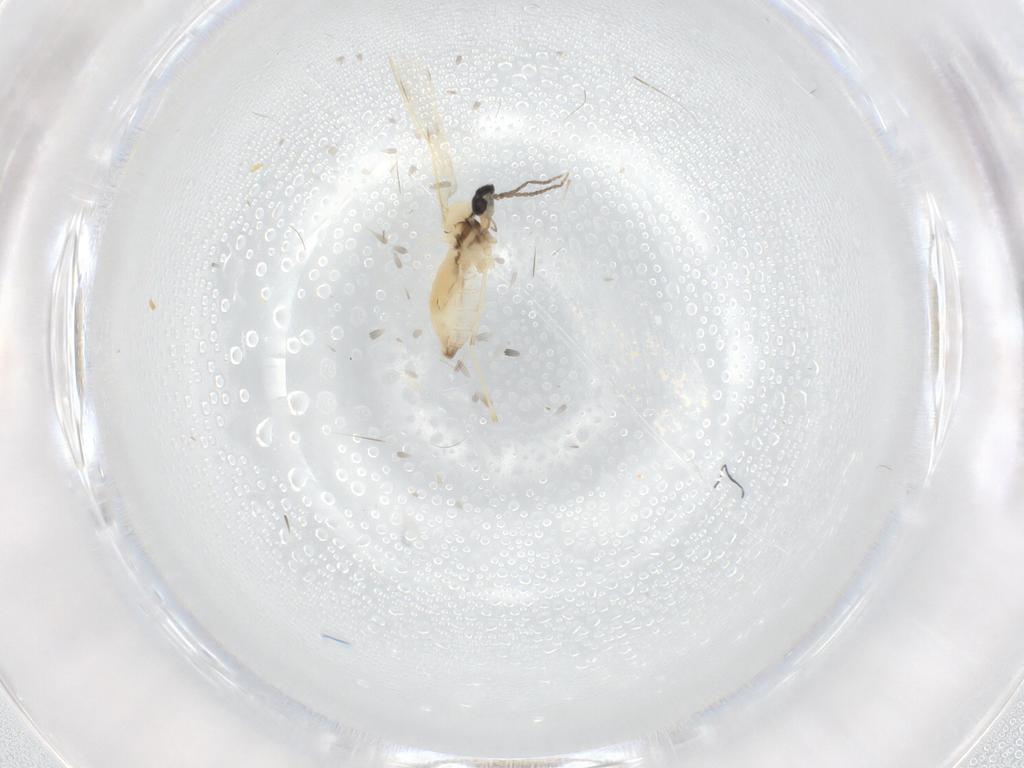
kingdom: Animalia
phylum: Arthropoda
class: Insecta
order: Diptera
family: Cecidomyiidae
